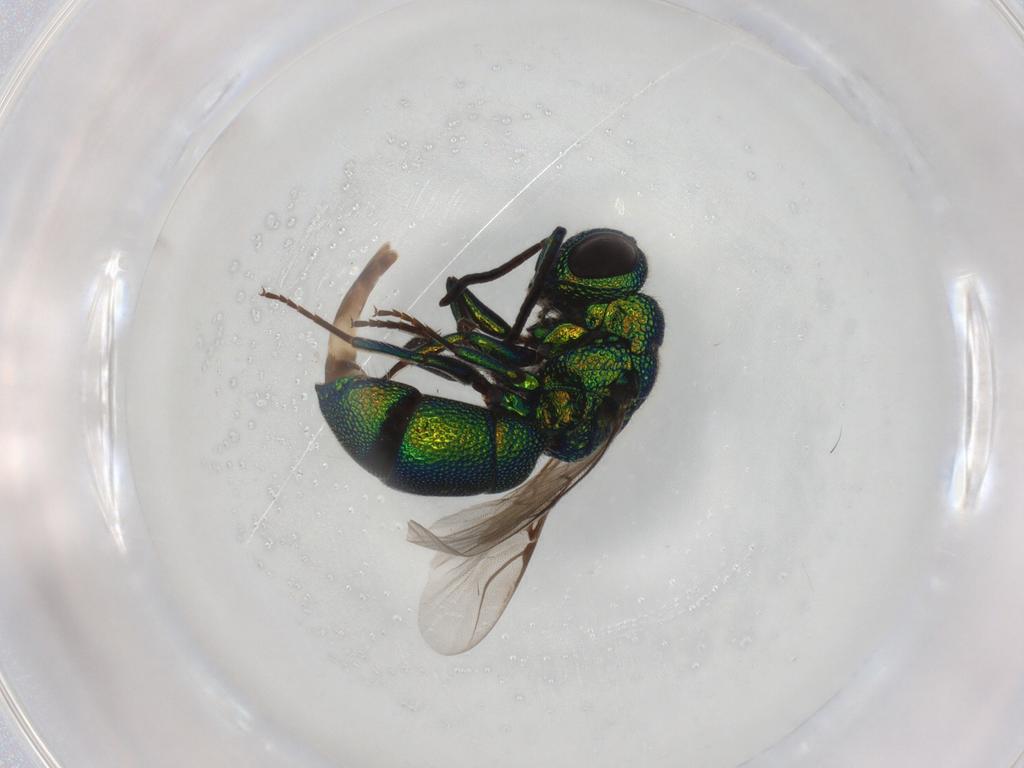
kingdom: Animalia
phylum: Arthropoda
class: Insecta
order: Hymenoptera
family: Chrysididae
